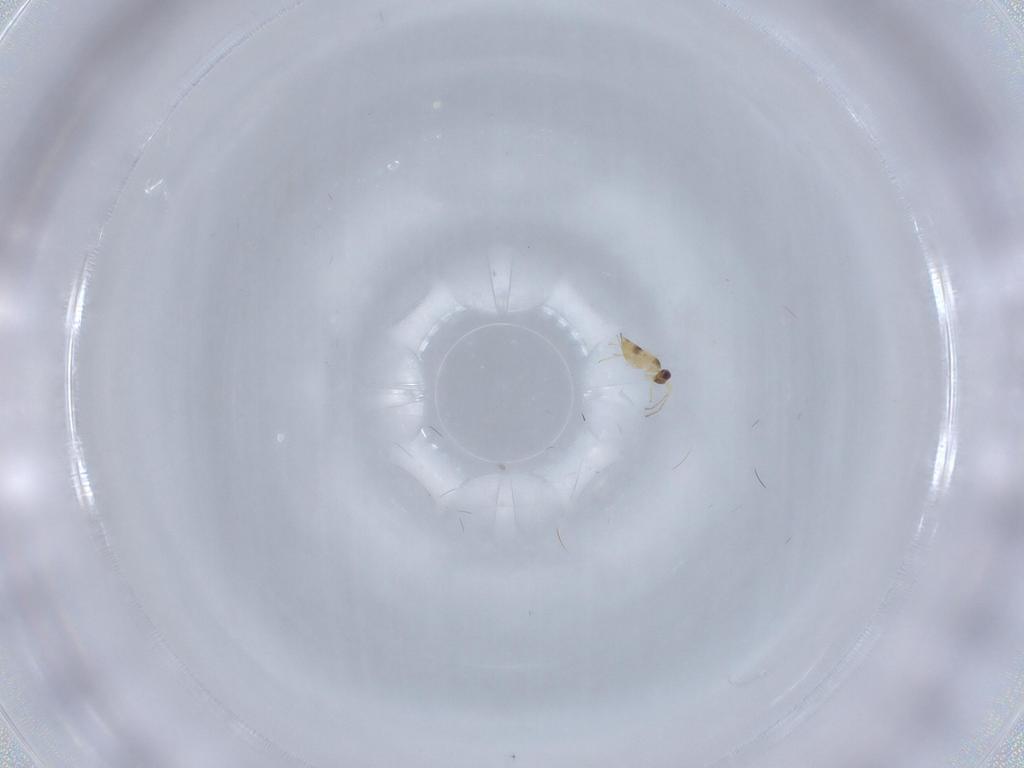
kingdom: Animalia
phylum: Arthropoda
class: Insecta
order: Hymenoptera
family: Mymaridae
